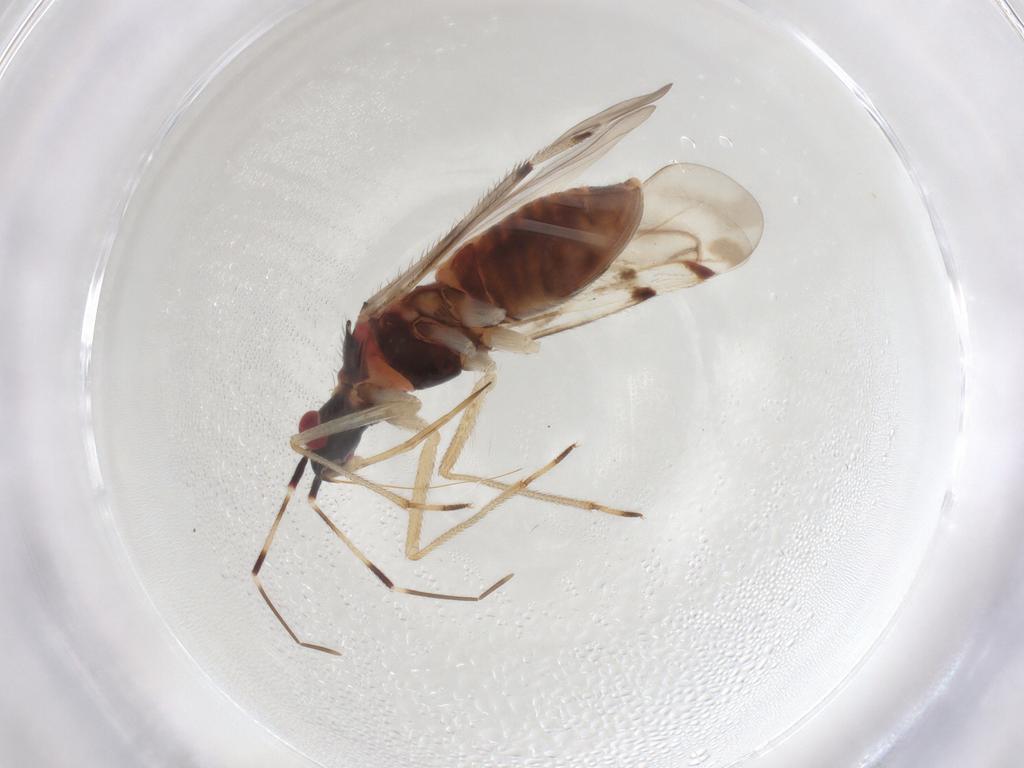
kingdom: Animalia
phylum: Arthropoda
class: Insecta
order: Hemiptera
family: Miridae
